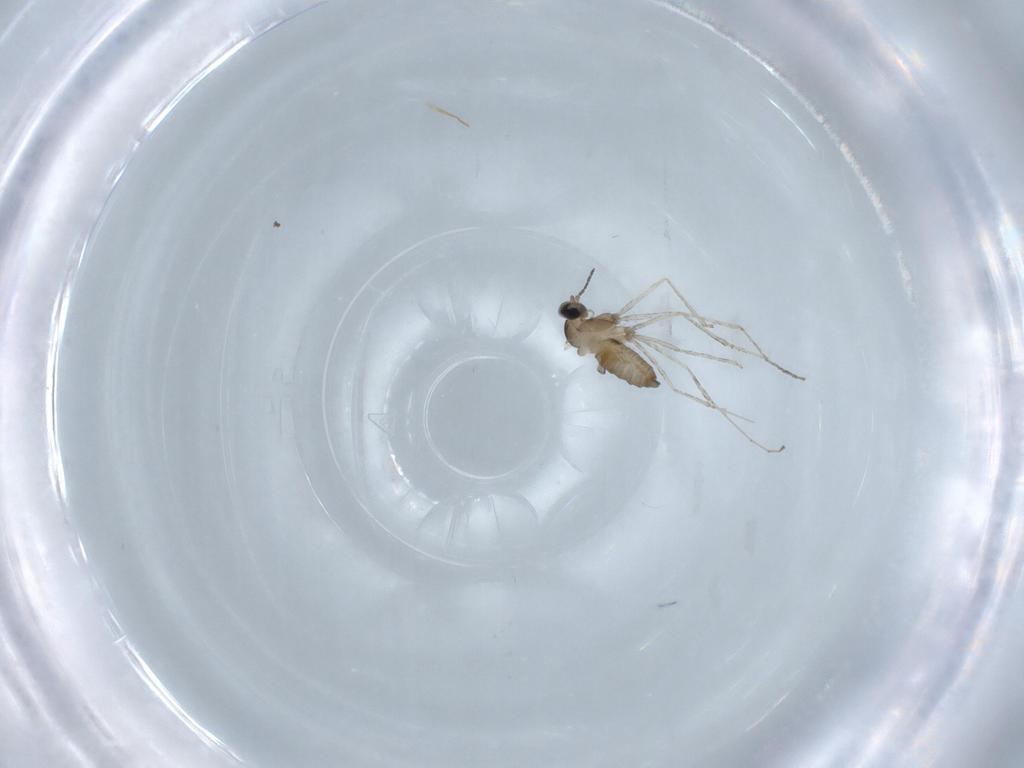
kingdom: Animalia
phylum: Arthropoda
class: Insecta
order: Diptera
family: Cecidomyiidae
